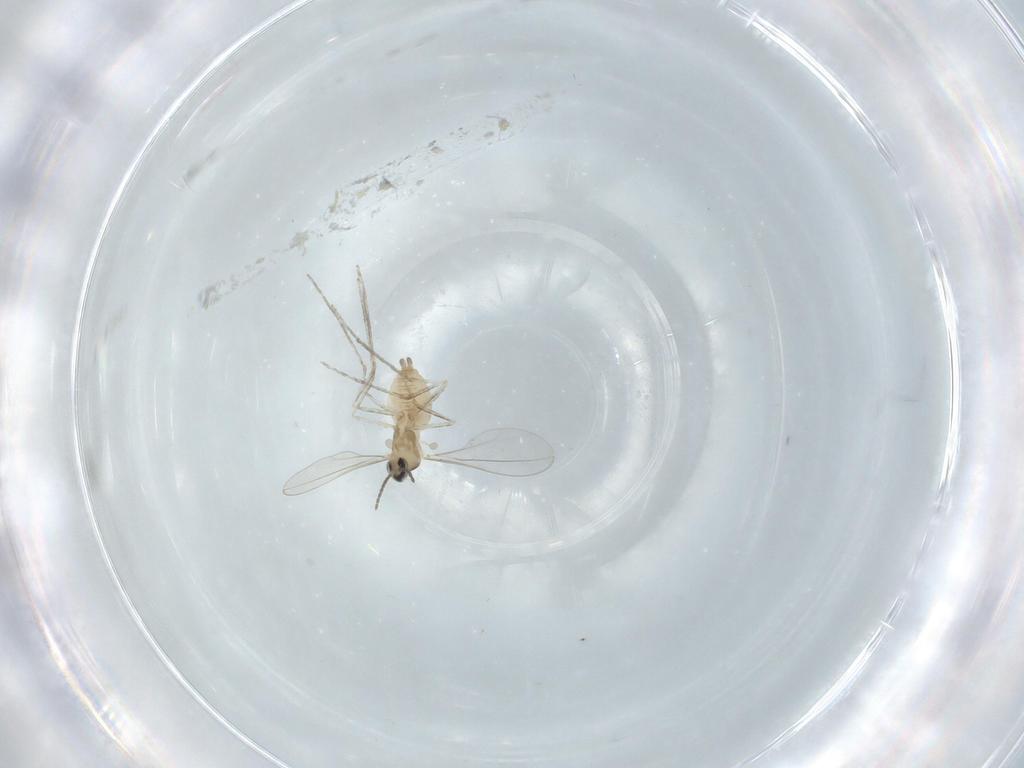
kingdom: Animalia
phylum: Arthropoda
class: Insecta
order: Diptera
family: Cecidomyiidae
